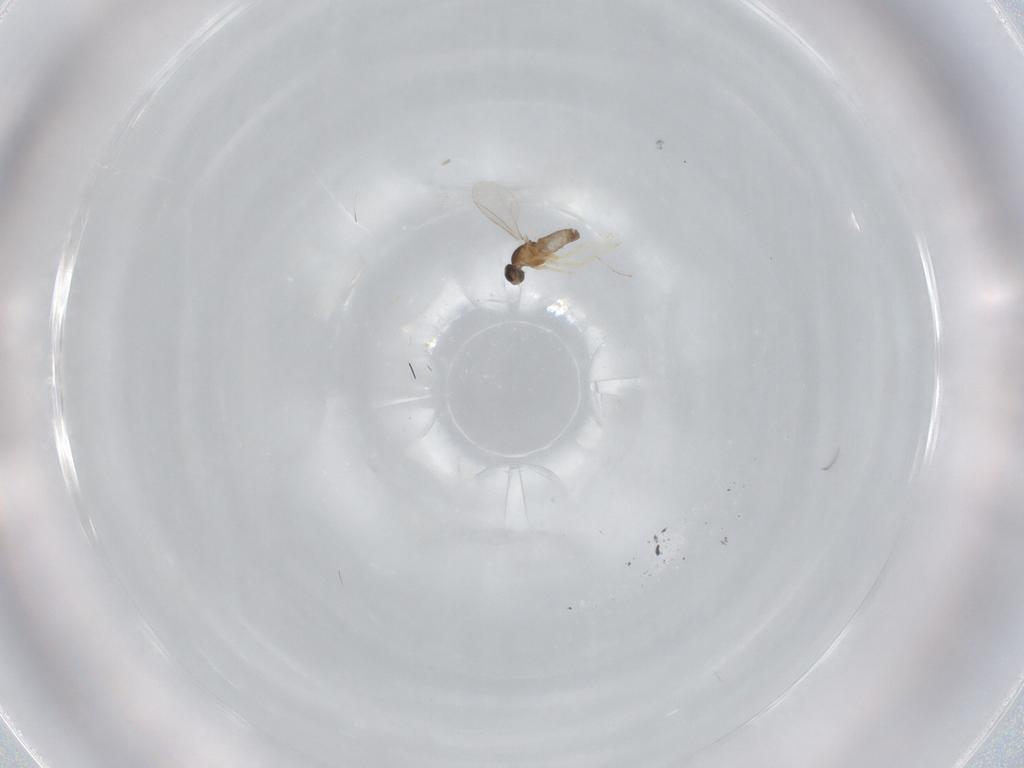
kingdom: Animalia
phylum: Arthropoda
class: Insecta
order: Diptera
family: Cecidomyiidae
